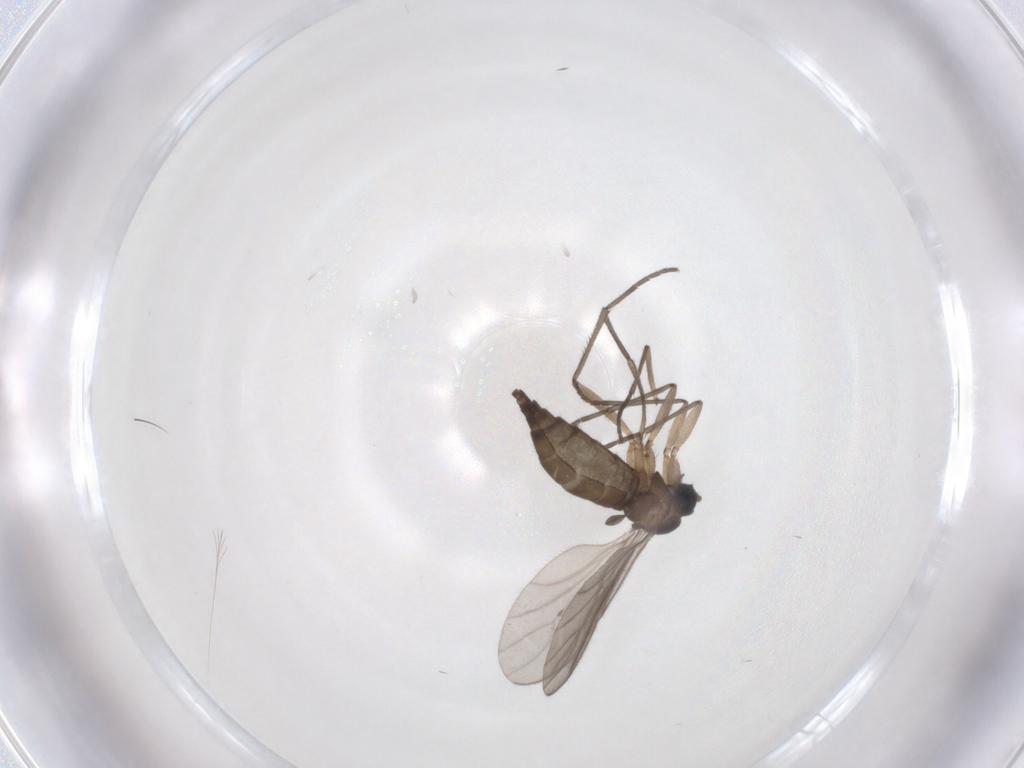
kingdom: Animalia
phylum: Arthropoda
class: Insecta
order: Diptera
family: Sciaridae
